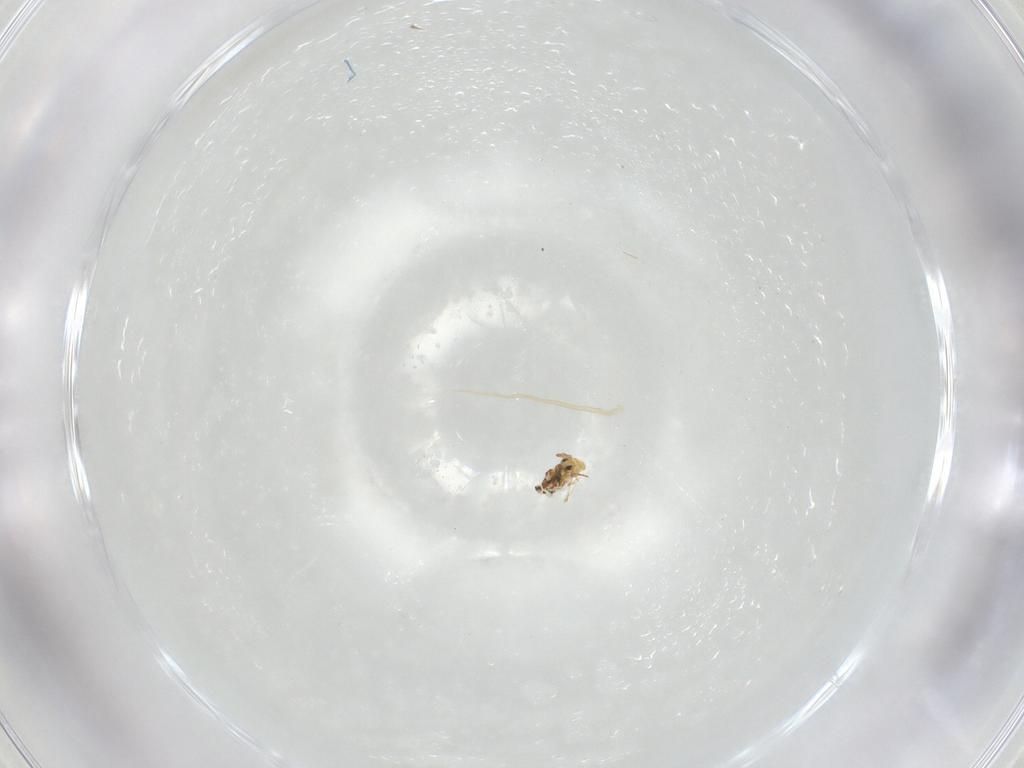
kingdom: Animalia
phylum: Arthropoda
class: Collembola
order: Symphypleona
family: Bourletiellidae
